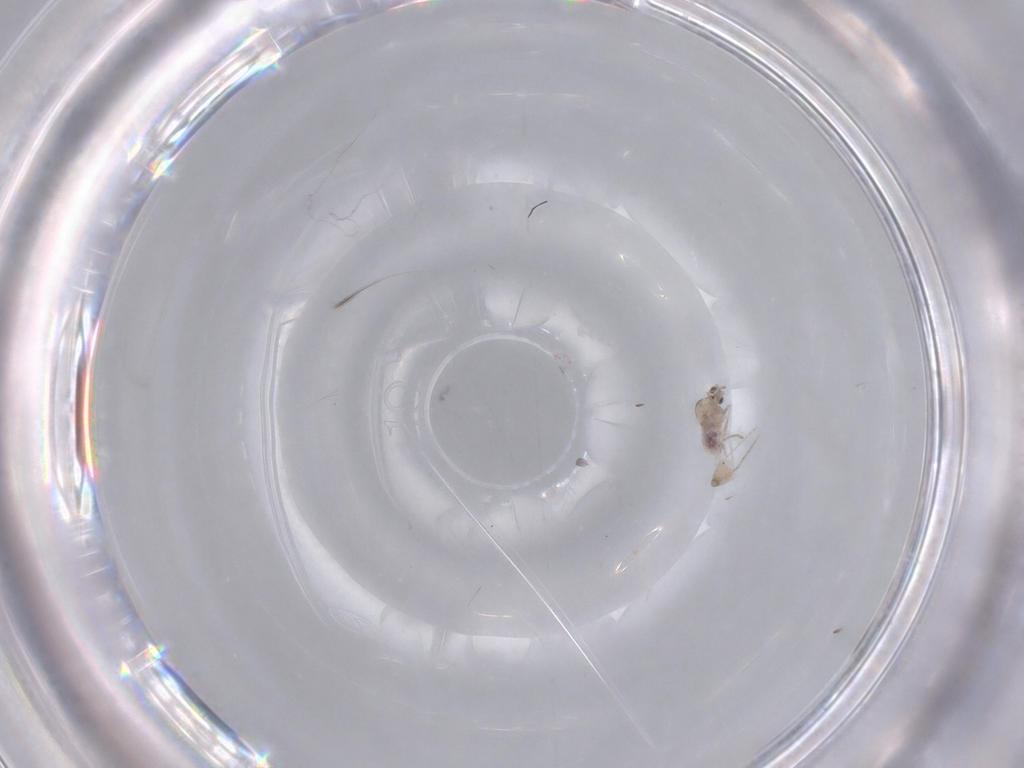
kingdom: Animalia
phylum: Arthropoda
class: Insecta
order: Diptera
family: Cecidomyiidae
